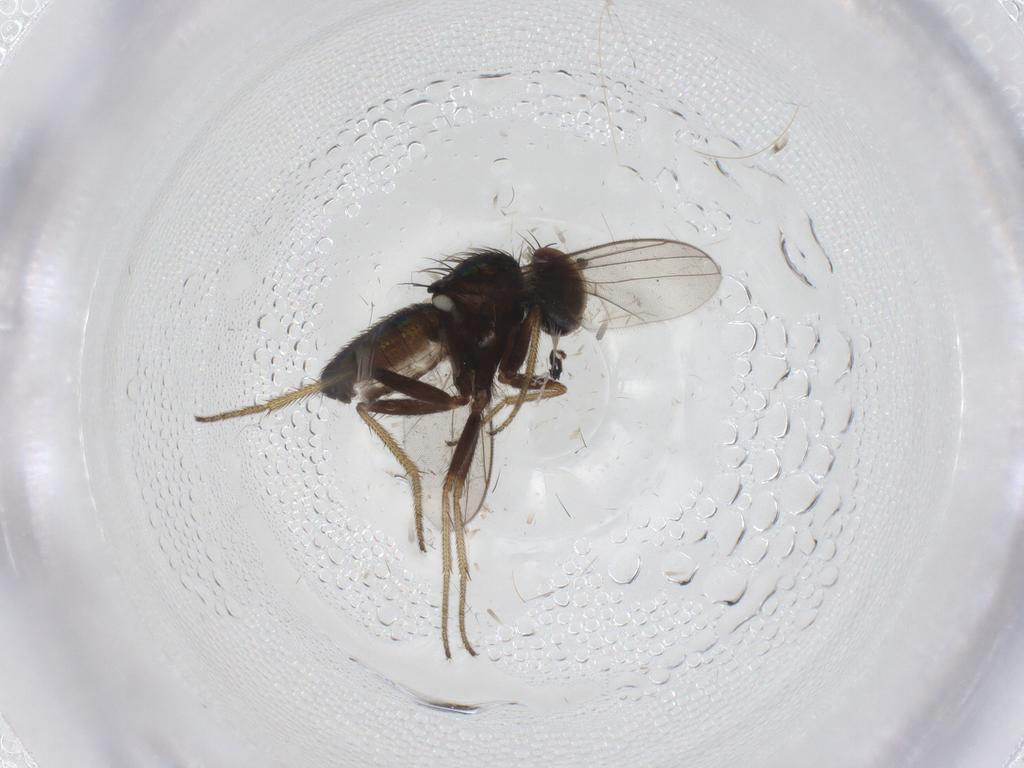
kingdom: Animalia
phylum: Arthropoda
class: Insecta
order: Diptera
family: Dolichopodidae
